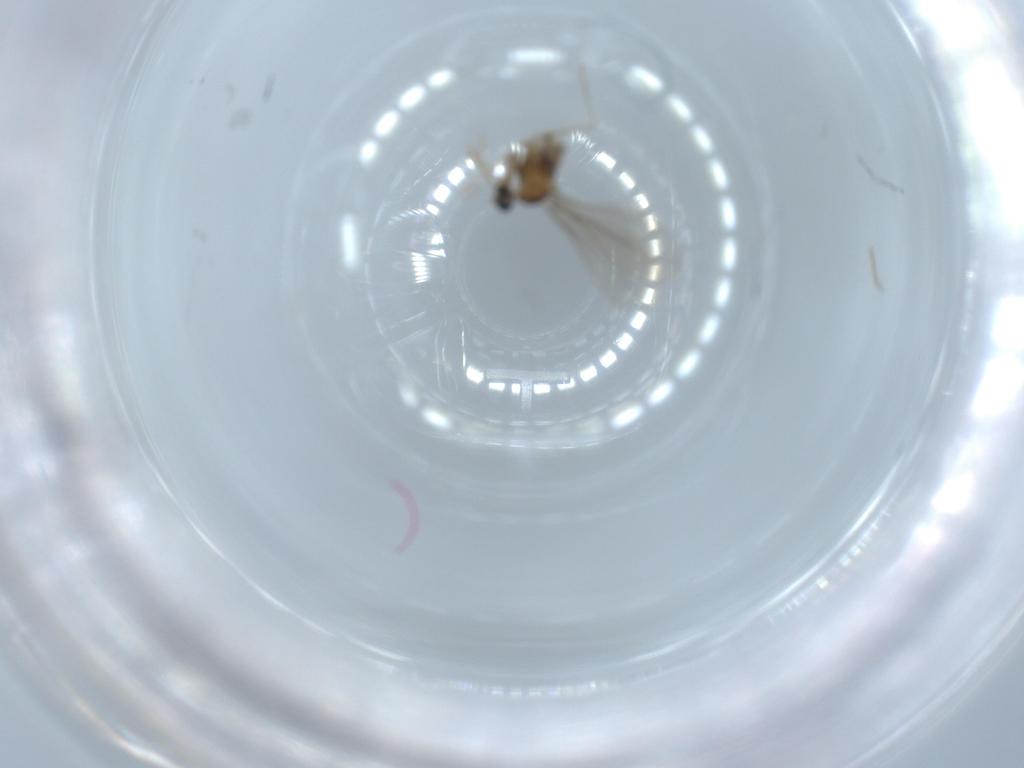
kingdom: Animalia
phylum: Arthropoda
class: Insecta
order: Diptera
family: Cecidomyiidae
